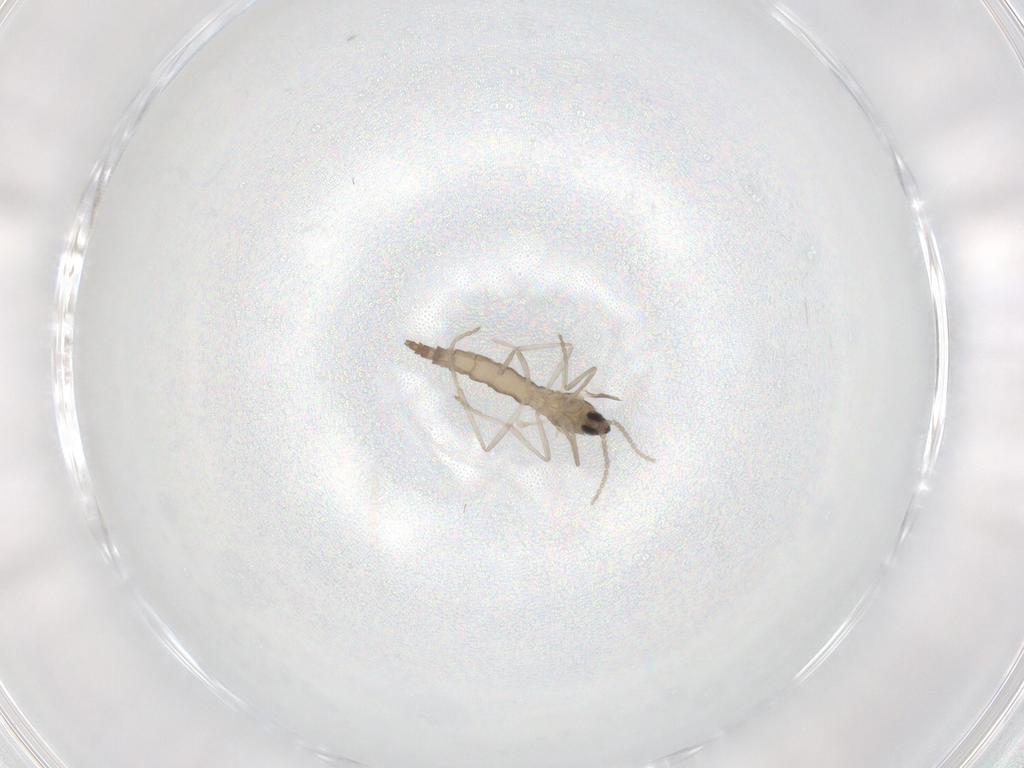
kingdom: Animalia
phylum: Arthropoda
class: Insecta
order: Diptera
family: Cecidomyiidae
